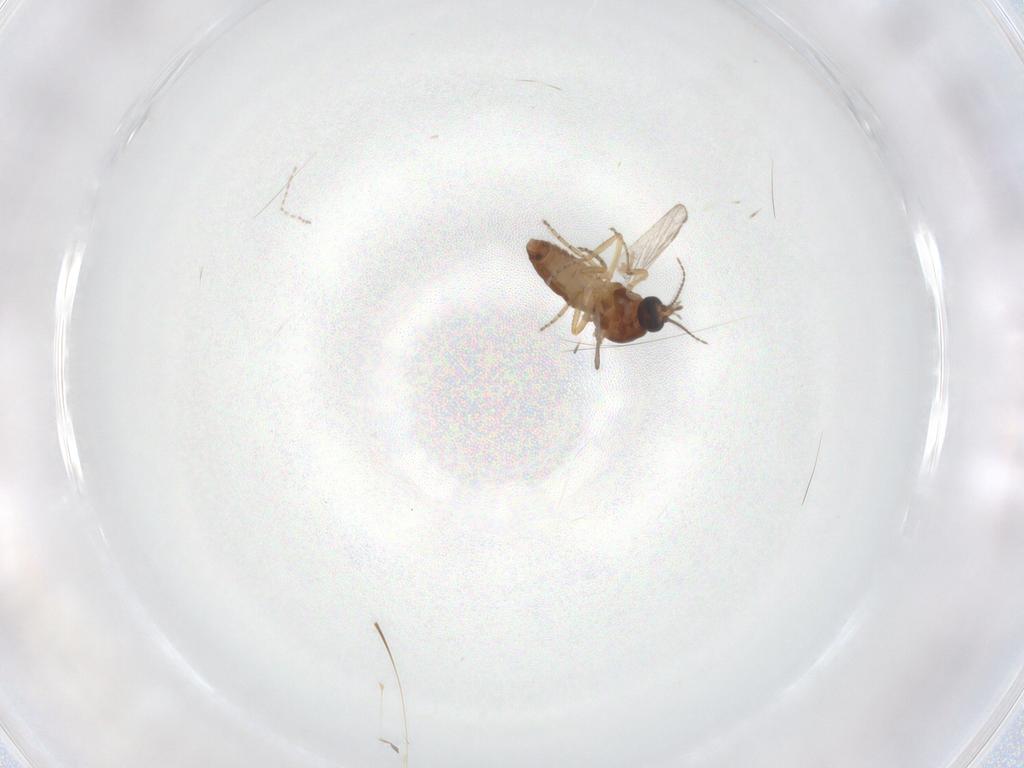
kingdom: Animalia
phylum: Arthropoda
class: Insecta
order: Diptera
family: Ceratopogonidae
